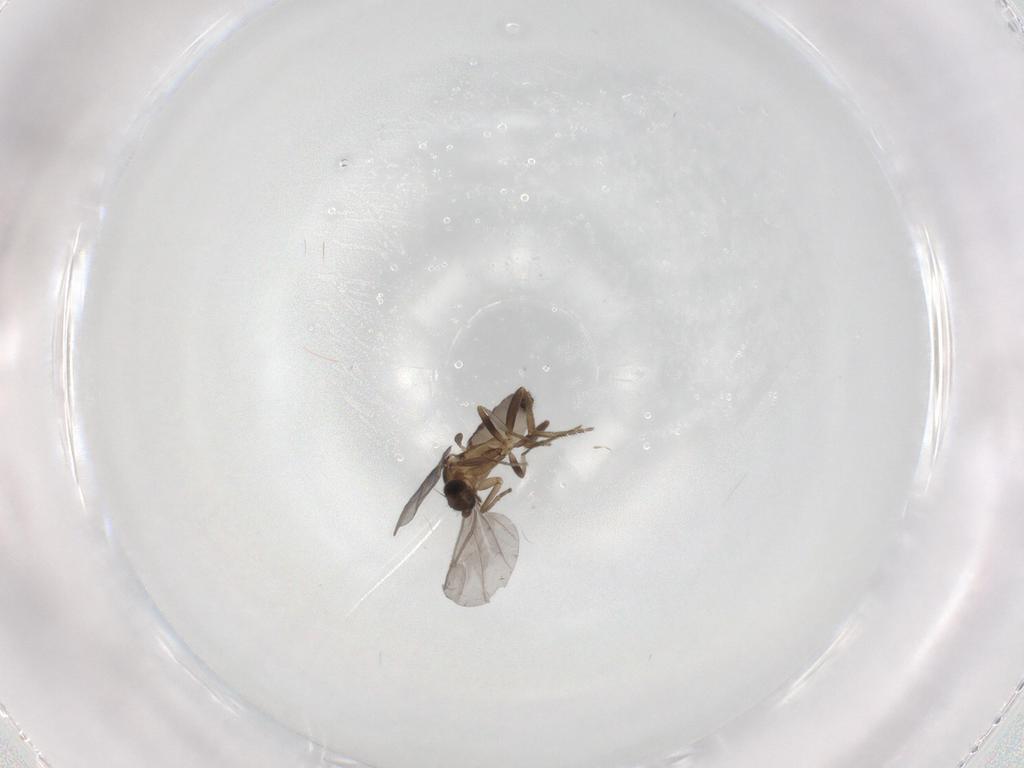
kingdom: Animalia
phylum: Arthropoda
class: Insecta
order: Diptera
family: Phoridae
